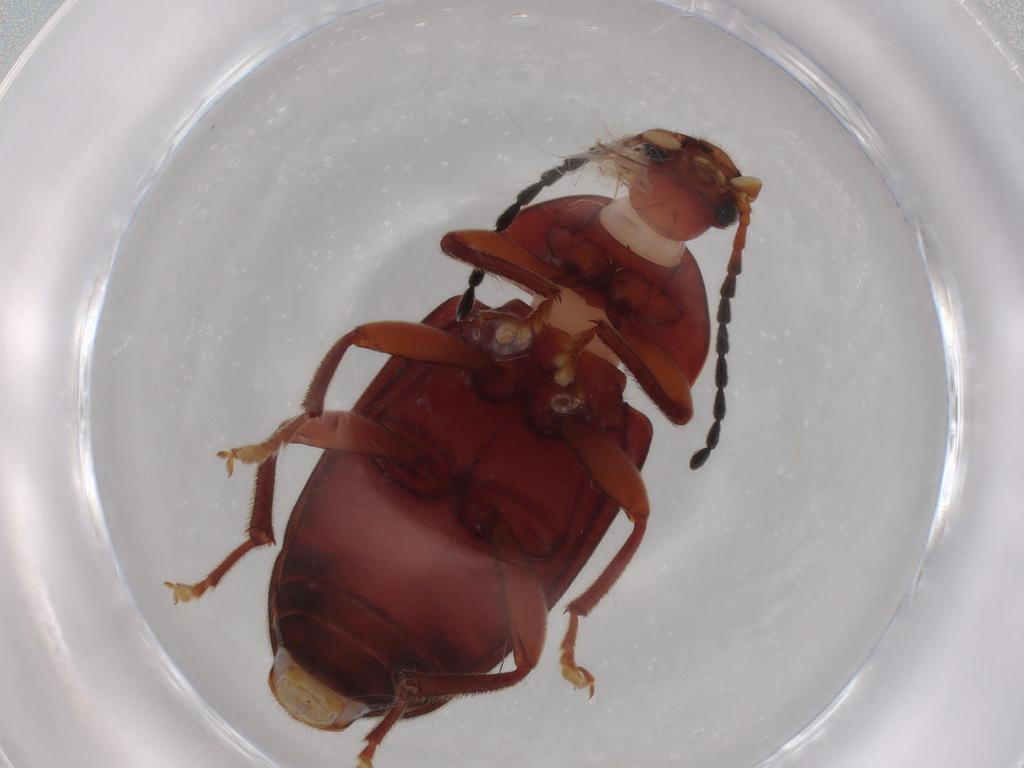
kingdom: Animalia
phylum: Arthropoda
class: Insecta
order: Coleoptera
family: Tenebrionidae
